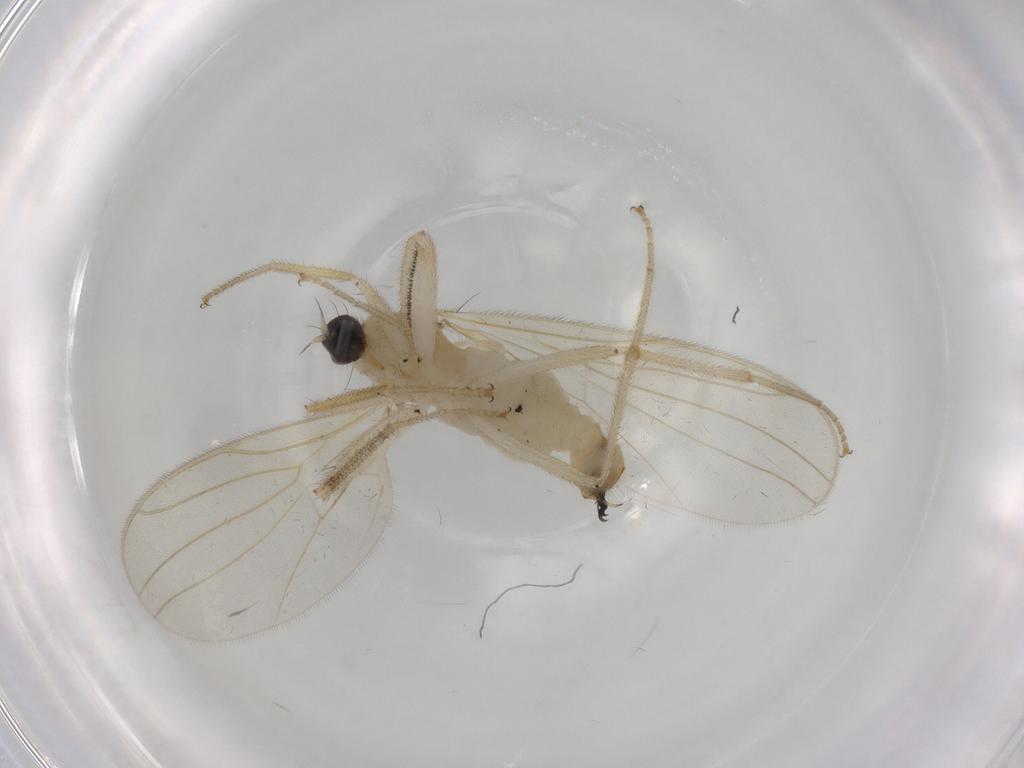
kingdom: Animalia
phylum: Arthropoda
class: Insecta
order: Diptera
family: Hybotidae
